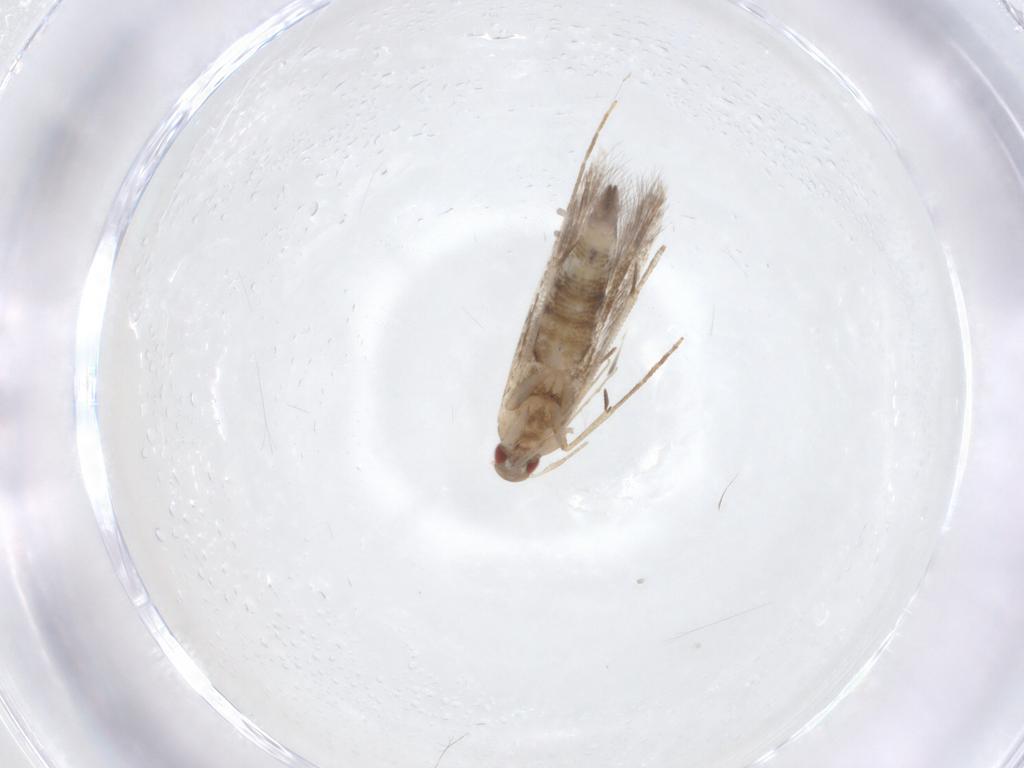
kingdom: Animalia
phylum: Arthropoda
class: Insecta
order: Lepidoptera
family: Cosmopterigidae
